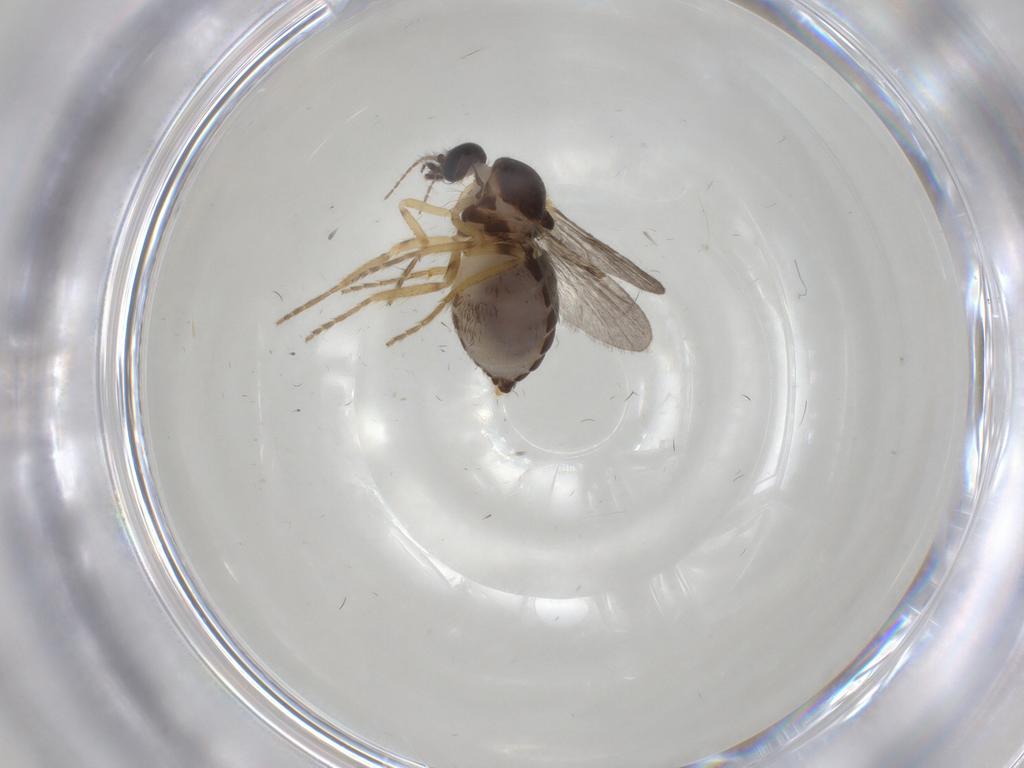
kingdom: Animalia
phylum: Arthropoda
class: Insecta
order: Diptera
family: Ceratopogonidae
